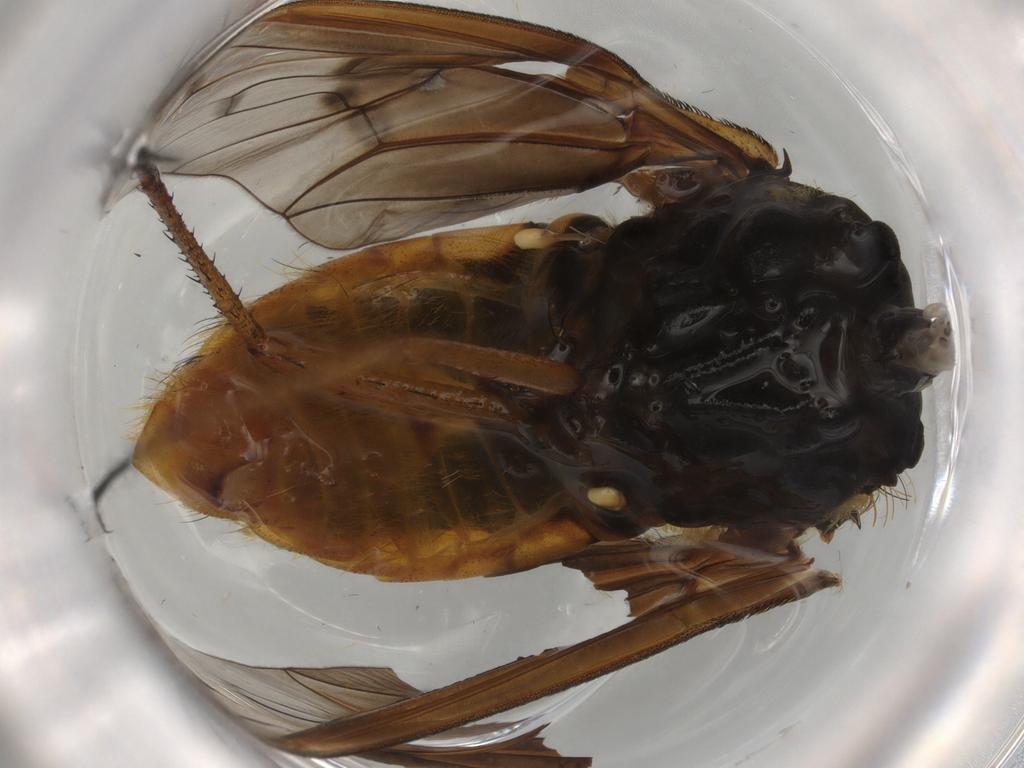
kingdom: Animalia
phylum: Arthropoda
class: Insecta
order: Diptera
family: Bombyliidae
